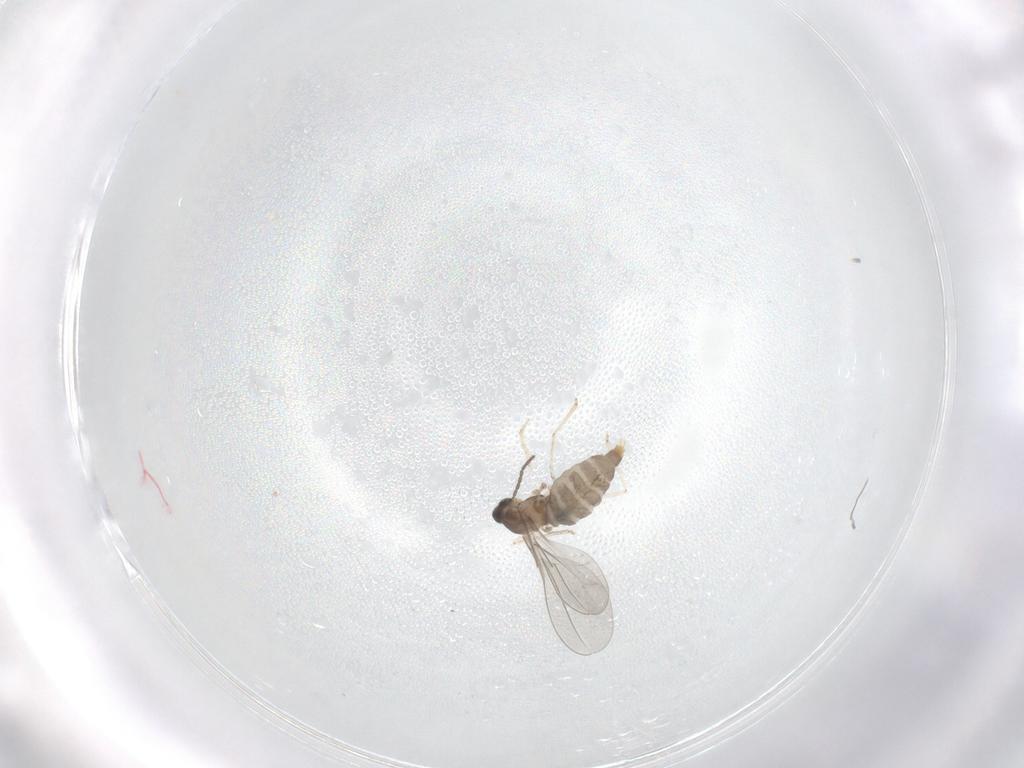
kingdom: Animalia
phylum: Arthropoda
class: Insecta
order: Diptera
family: Cecidomyiidae
